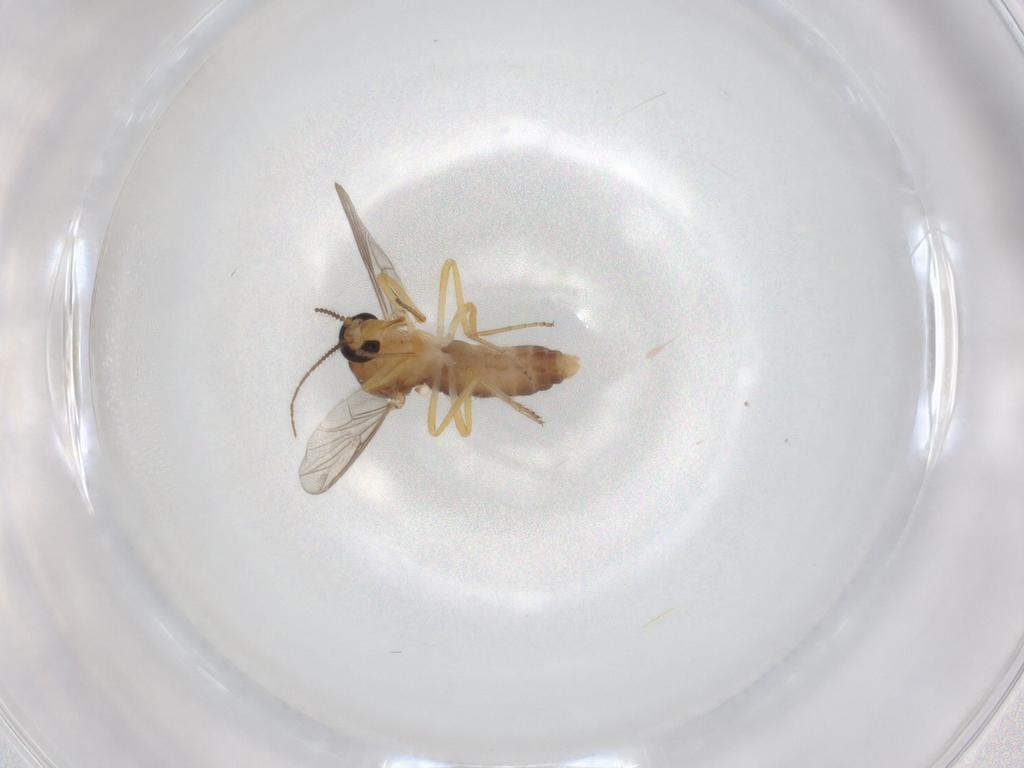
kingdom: Animalia
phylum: Arthropoda
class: Insecta
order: Diptera
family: Ceratopogonidae
